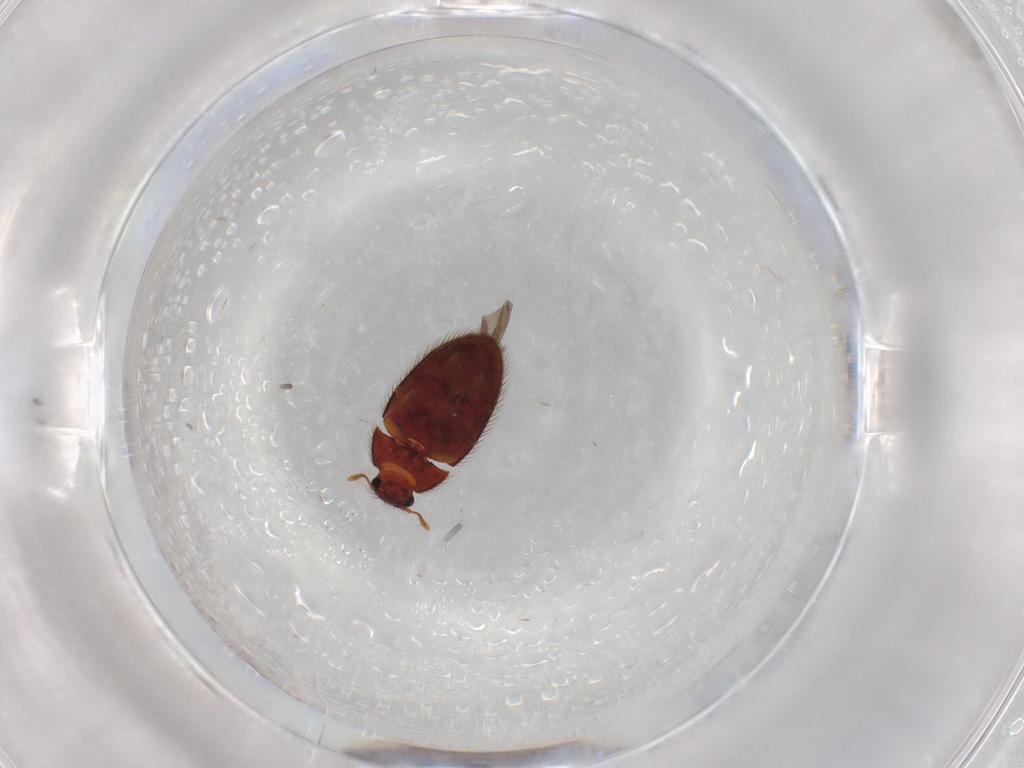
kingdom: Animalia
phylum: Arthropoda
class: Insecta
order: Coleoptera
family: Biphyllidae
